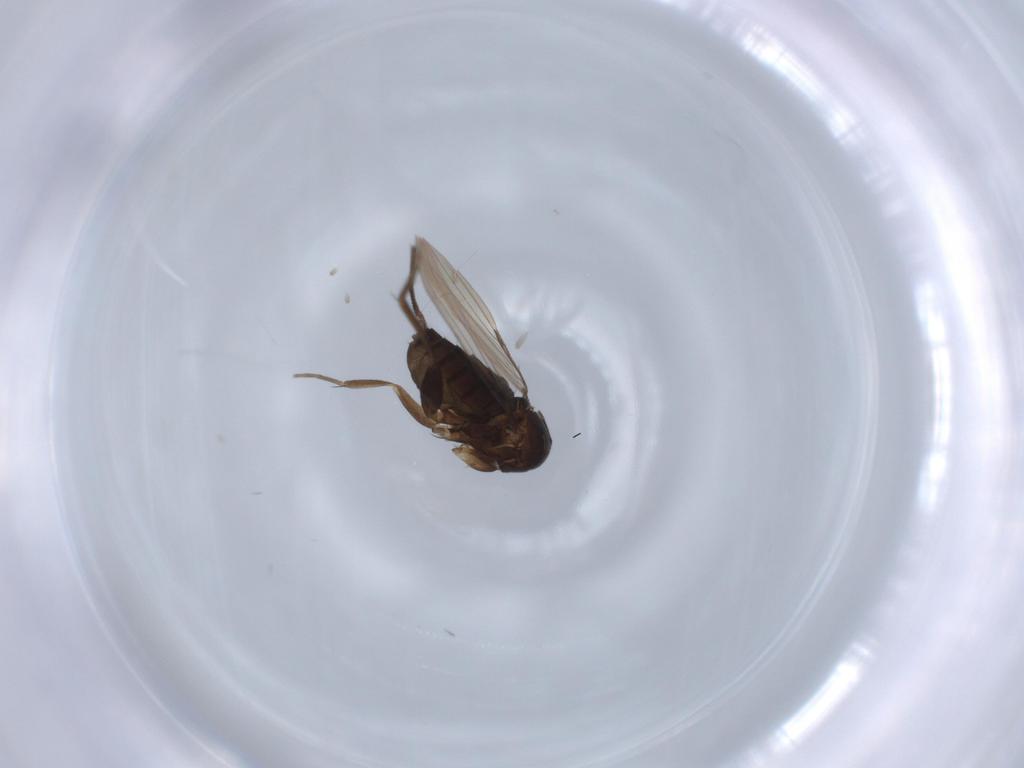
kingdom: Animalia
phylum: Arthropoda
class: Insecta
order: Diptera
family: Phoridae
